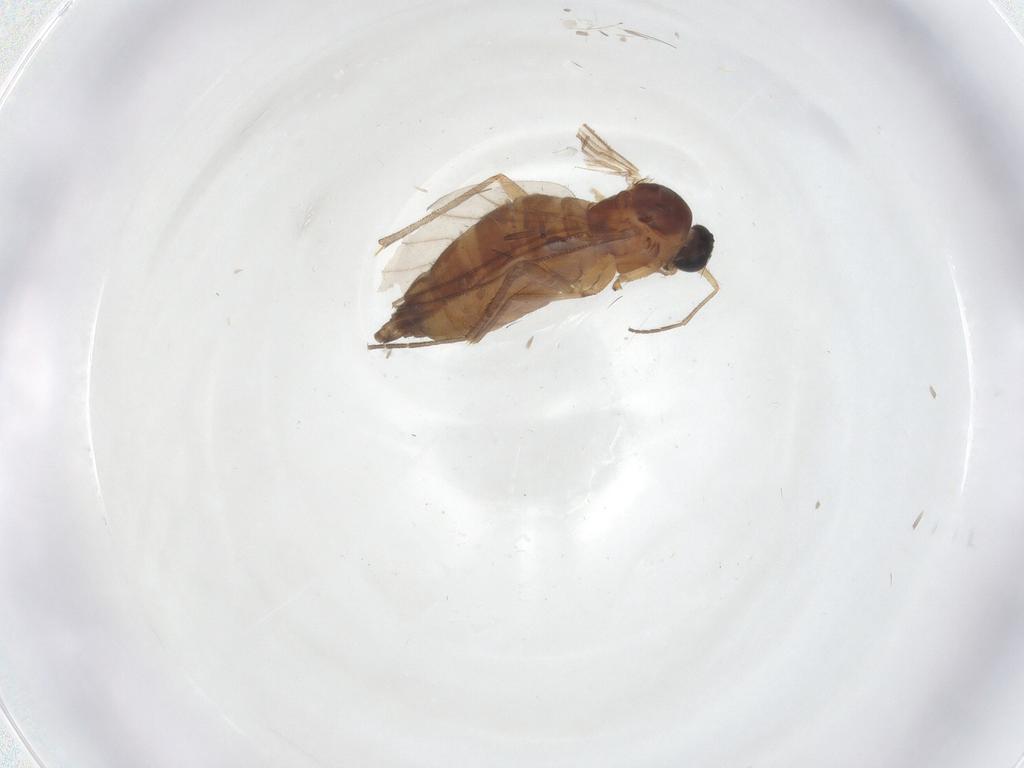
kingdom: Animalia
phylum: Arthropoda
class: Insecta
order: Diptera
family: Sciaridae
